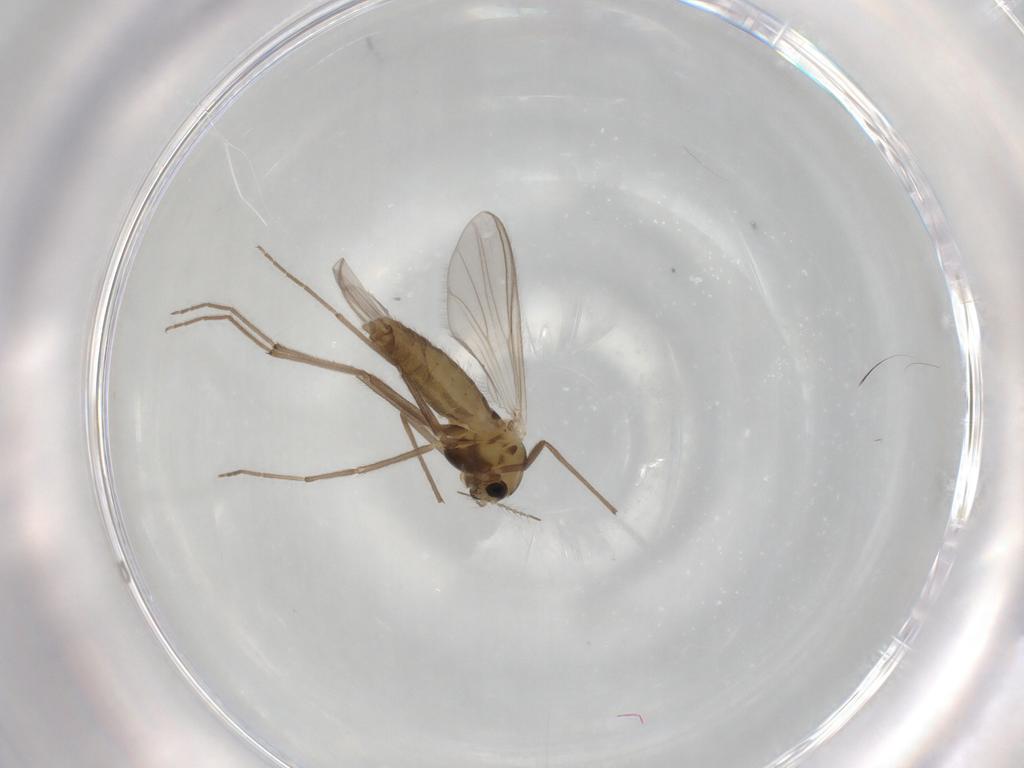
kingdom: Animalia
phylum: Arthropoda
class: Insecta
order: Diptera
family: Chironomidae
